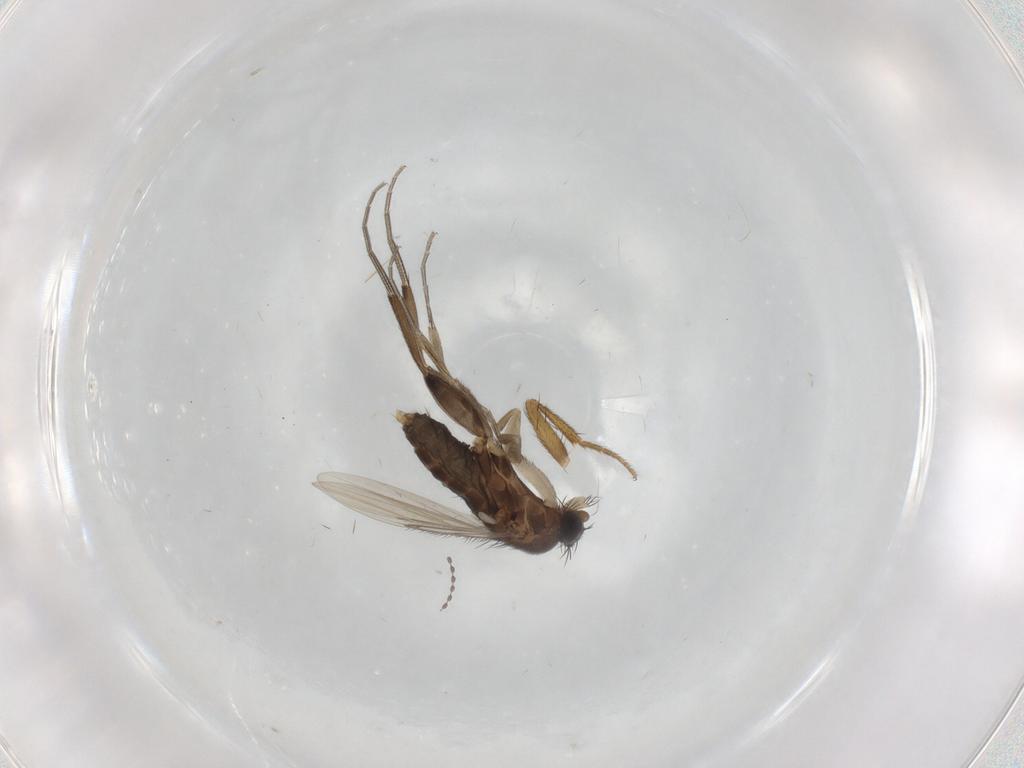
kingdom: Animalia
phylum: Arthropoda
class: Insecta
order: Diptera
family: Phoridae
